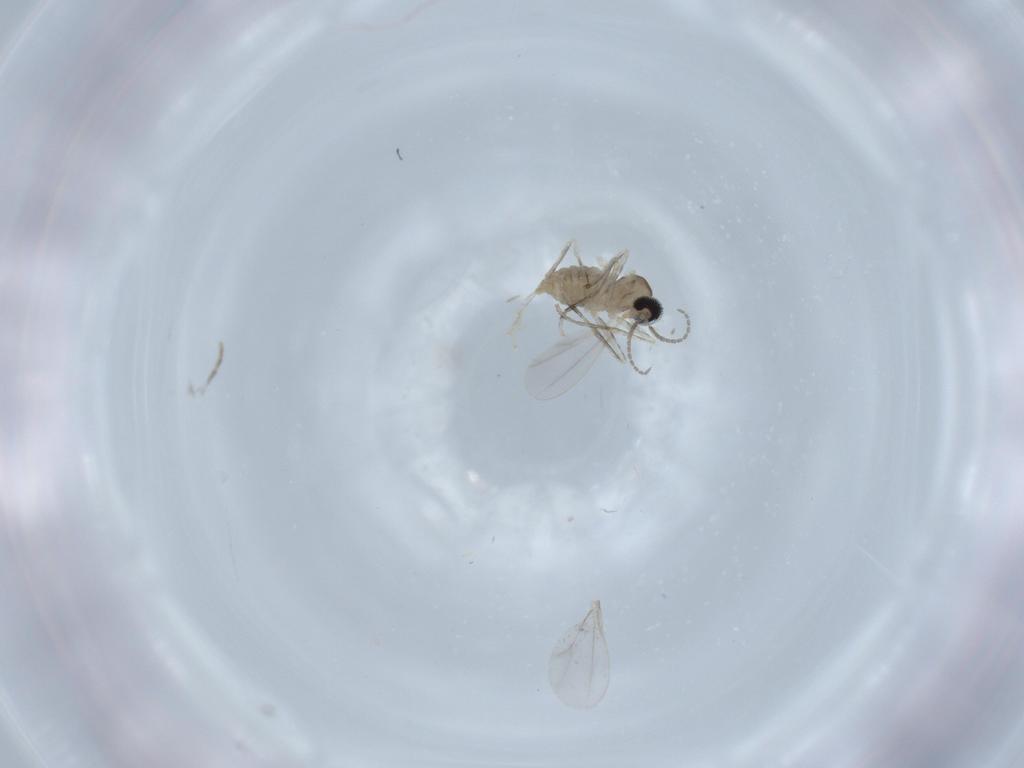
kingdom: Animalia
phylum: Arthropoda
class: Insecta
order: Diptera
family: Cecidomyiidae
